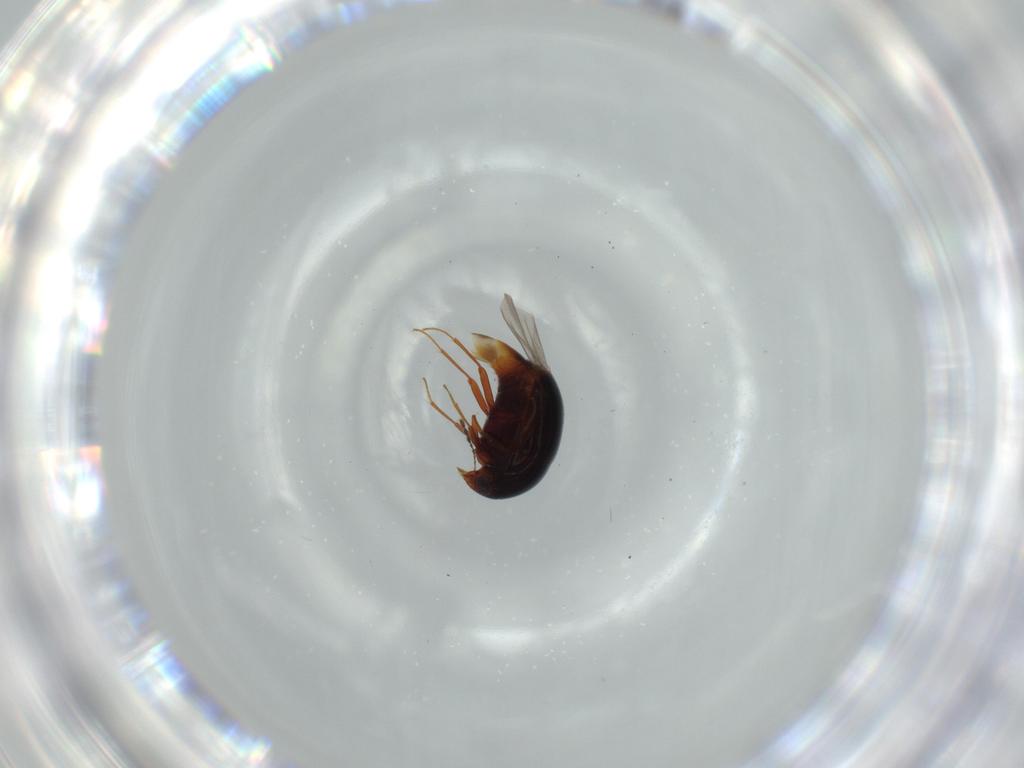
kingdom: Animalia
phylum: Arthropoda
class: Insecta
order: Coleoptera
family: Staphylinidae
